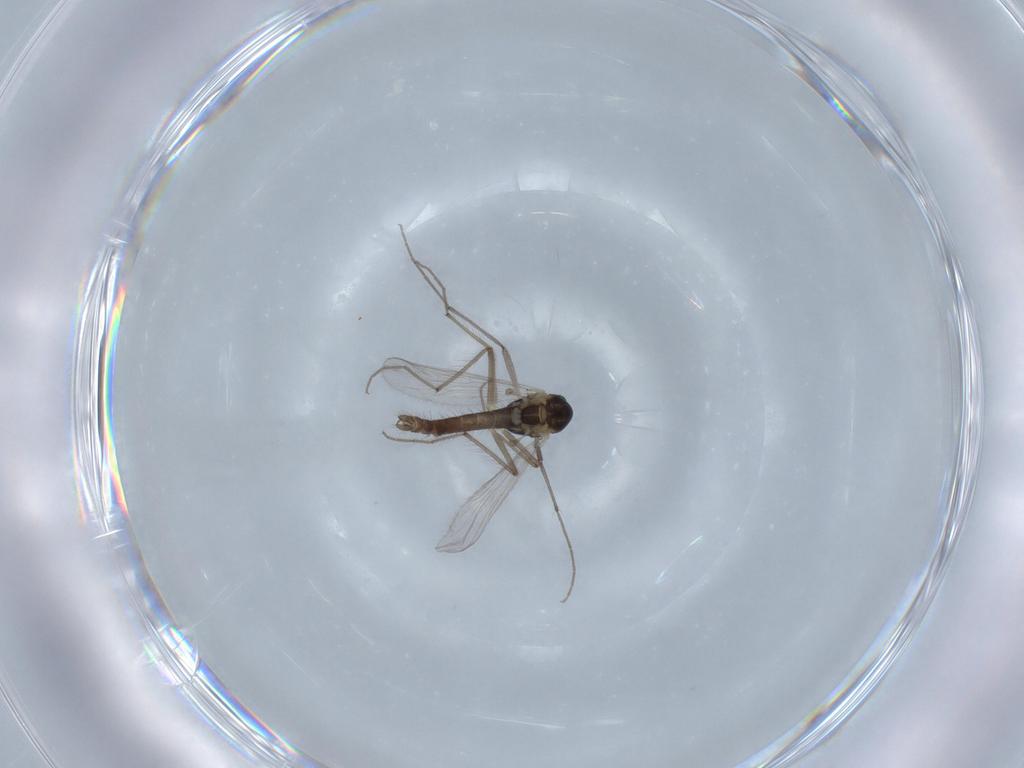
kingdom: Animalia
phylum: Arthropoda
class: Insecta
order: Diptera
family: Chironomidae
